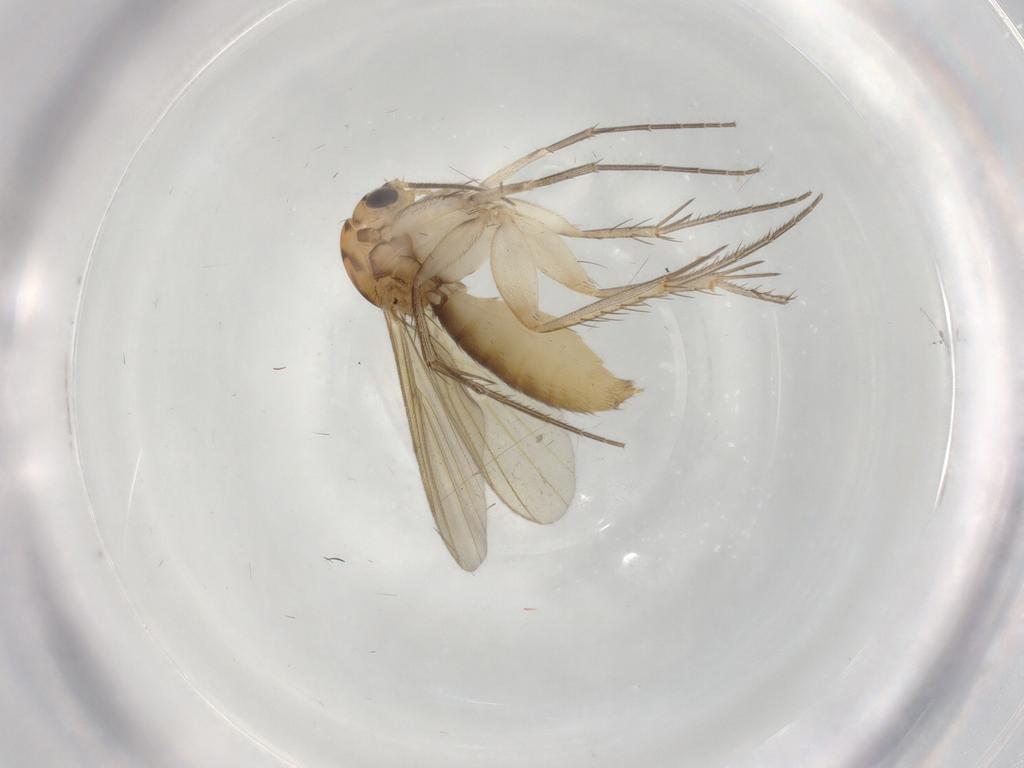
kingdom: Animalia
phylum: Arthropoda
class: Insecta
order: Diptera
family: Mycetophilidae
